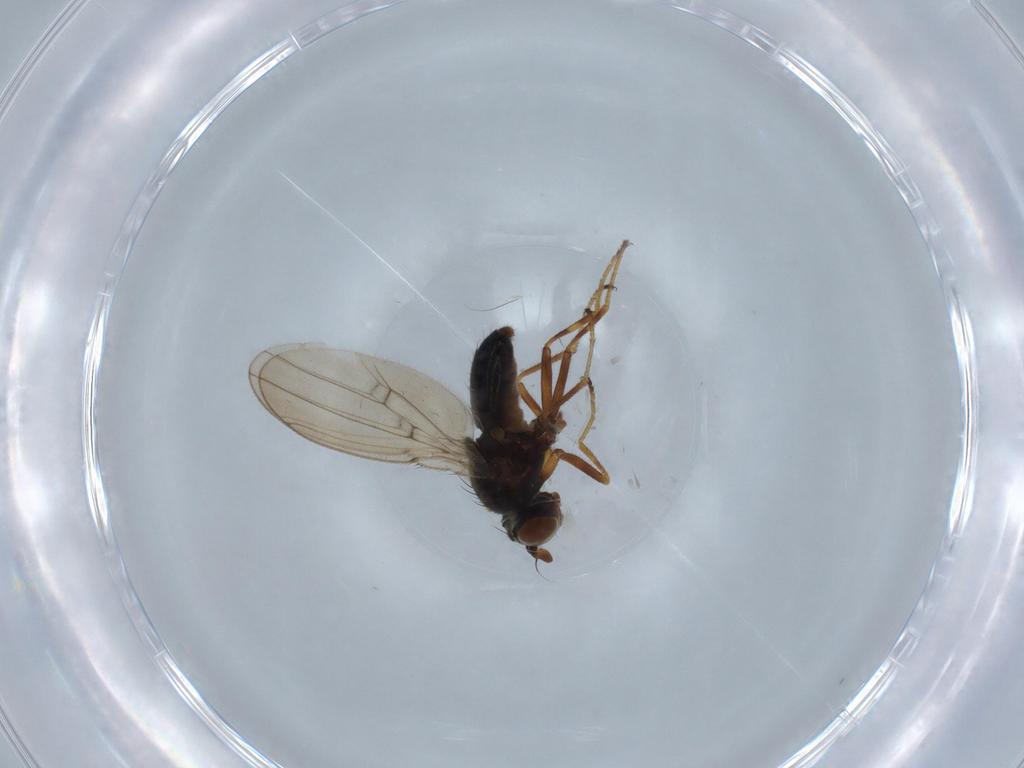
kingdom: Animalia
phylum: Arthropoda
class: Insecta
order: Diptera
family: Ephydridae
